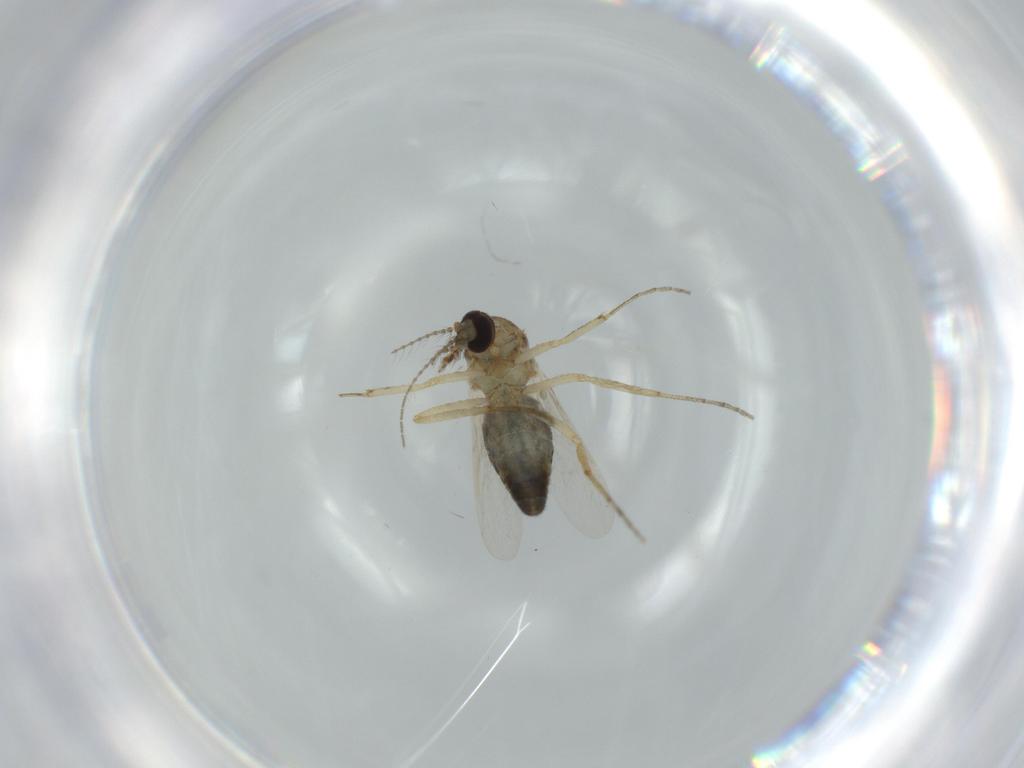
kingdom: Animalia
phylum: Arthropoda
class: Insecta
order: Diptera
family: Ceratopogonidae
